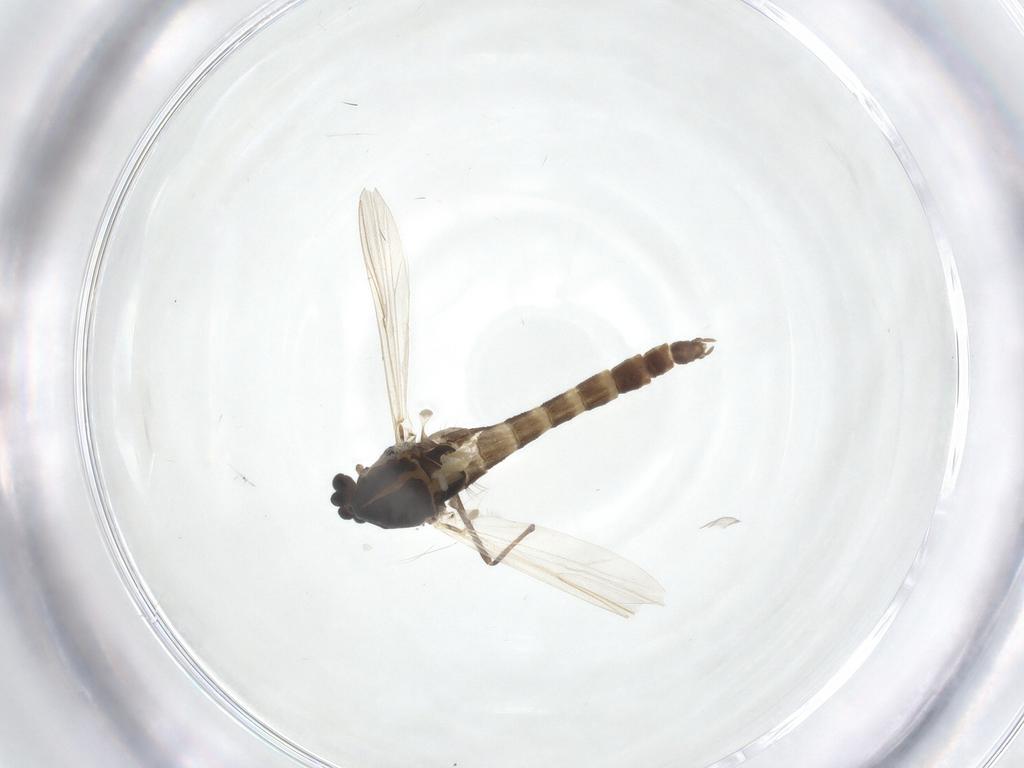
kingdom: Animalia
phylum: Arthropoda
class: Insecta
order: Diptera
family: Chironomidae
